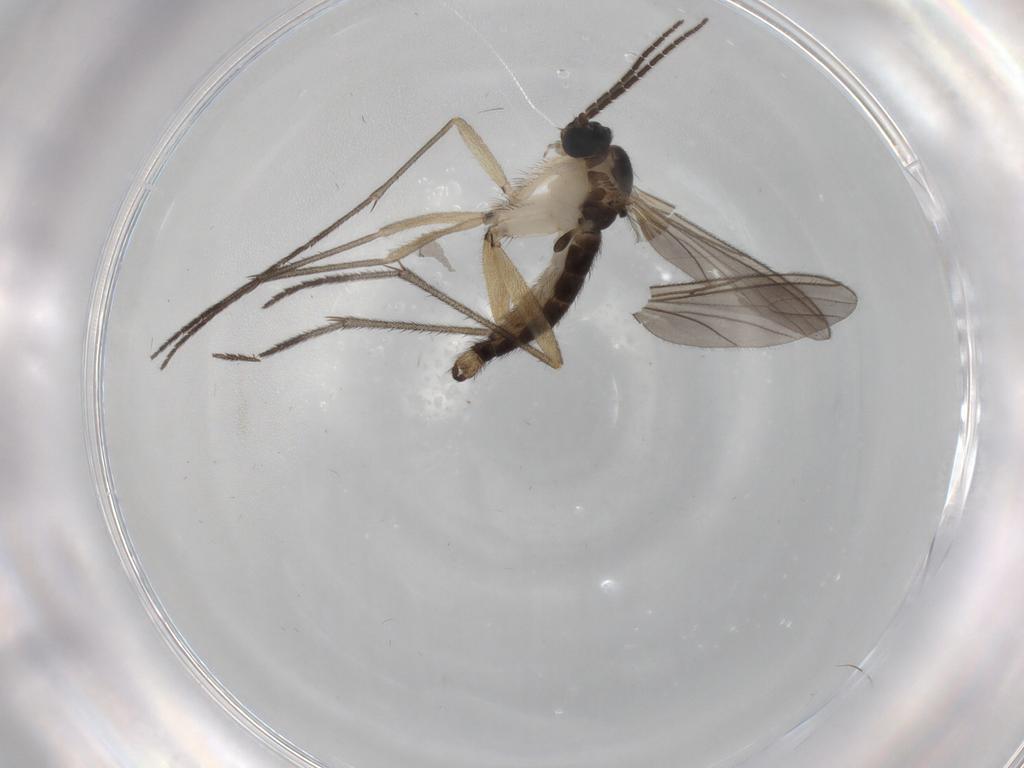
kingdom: Animalia
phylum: Arthropoda
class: Insecta
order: Diptera
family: Sciaridae
